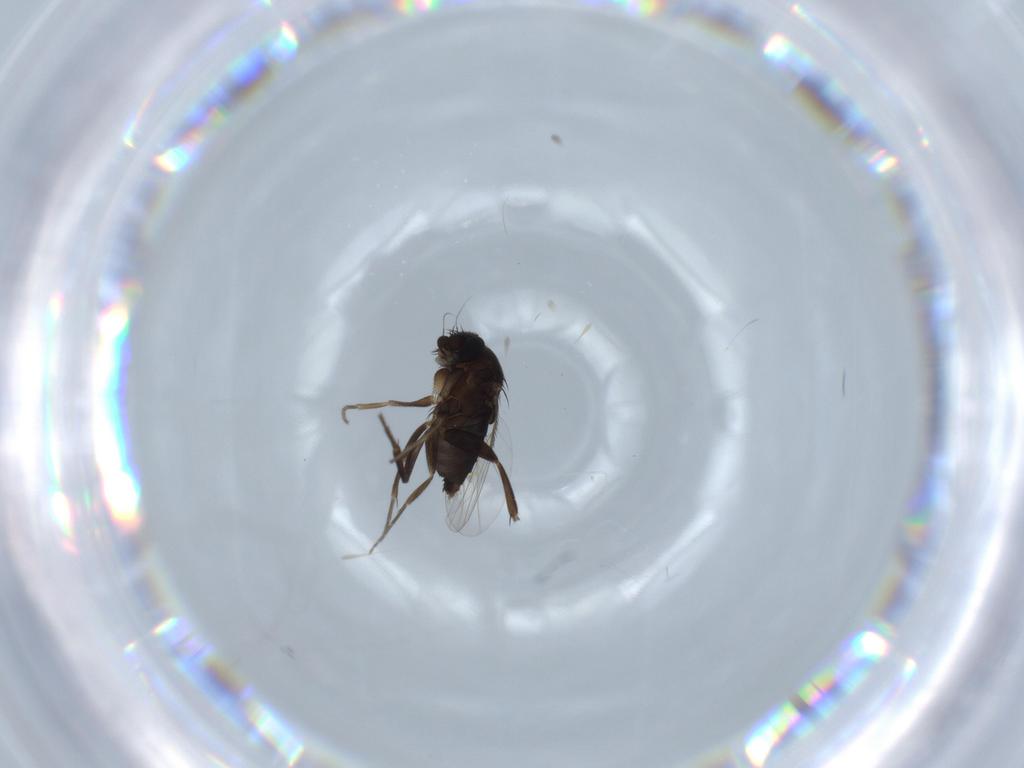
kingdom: Animalia
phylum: Arthropoda
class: Insecta
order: Diptera
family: Phoridae
